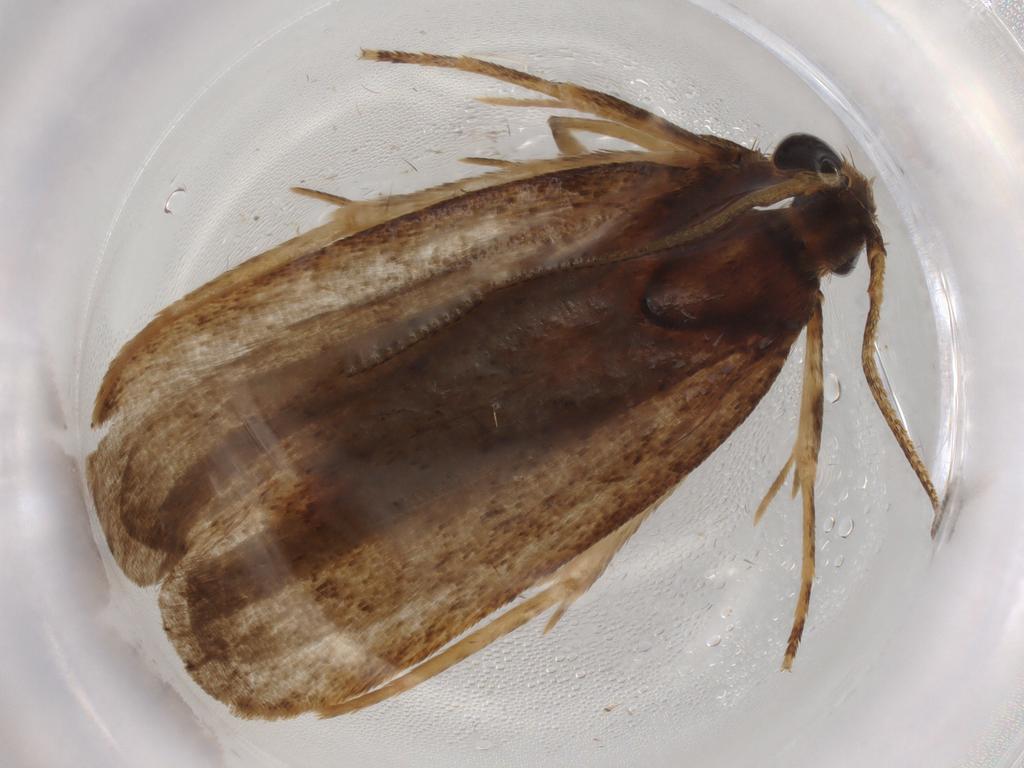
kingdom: Animalia
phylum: Arthropoda
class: Insecta
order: Lepidoptera
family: Autostichidae
